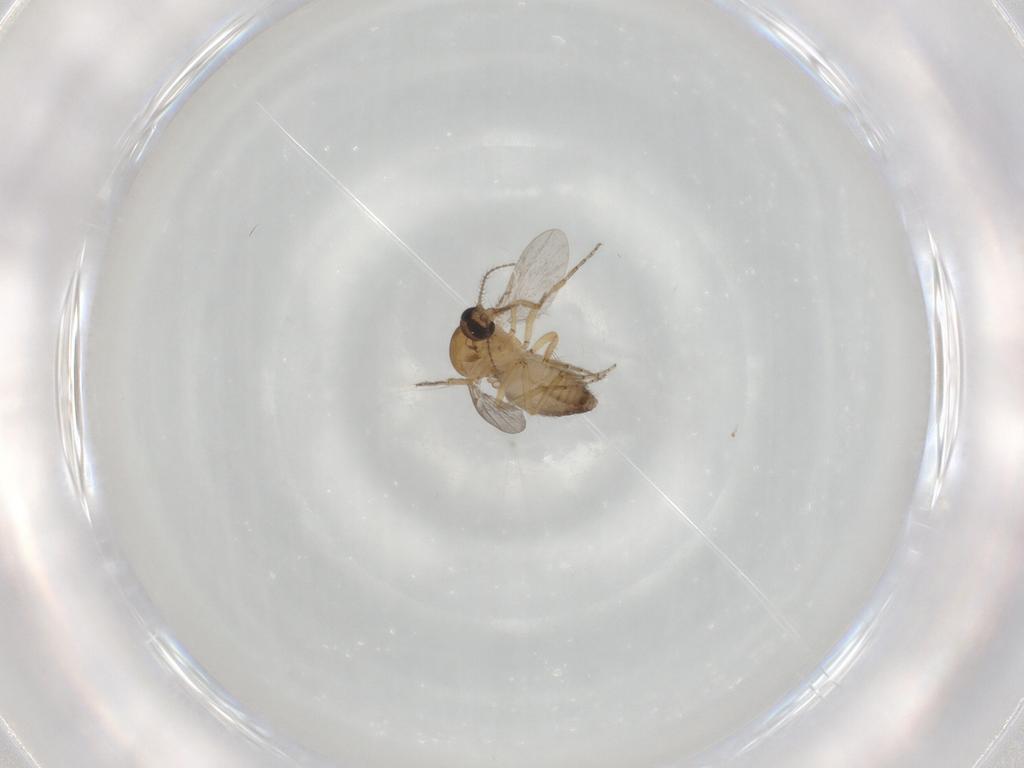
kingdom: Animalia
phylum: Arthropoda
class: Insecta
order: Diptera
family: Ceratopogonidae
